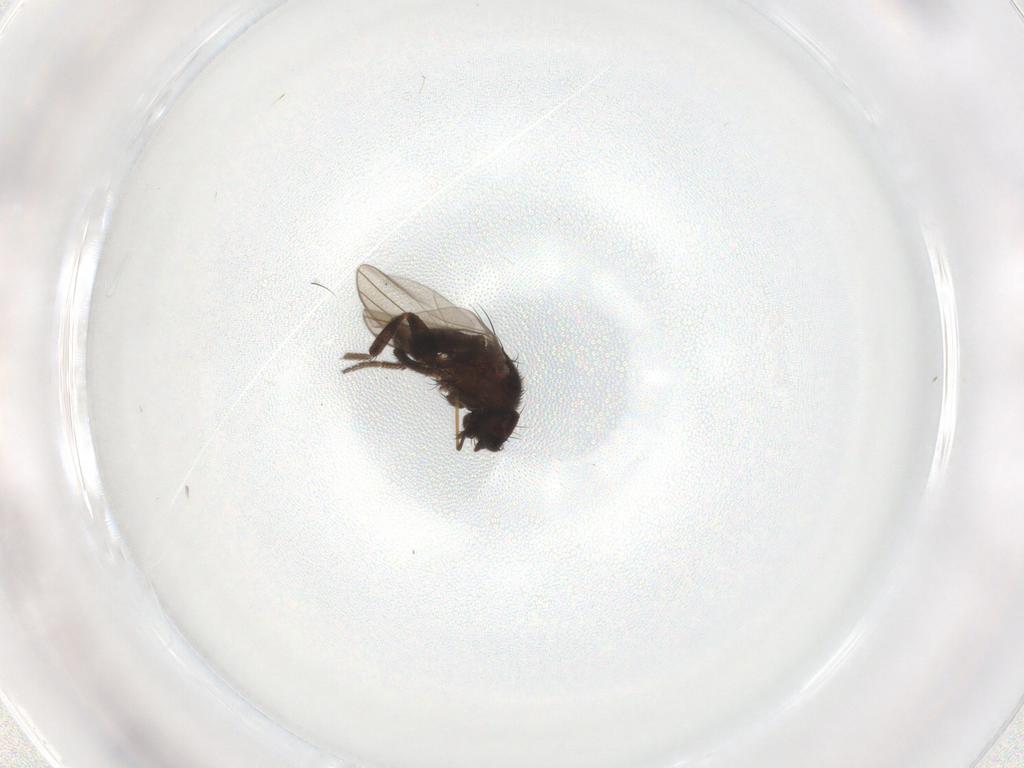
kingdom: Animalia
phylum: Arthropoda
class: Insecta
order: Diptera
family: Milichiidae
